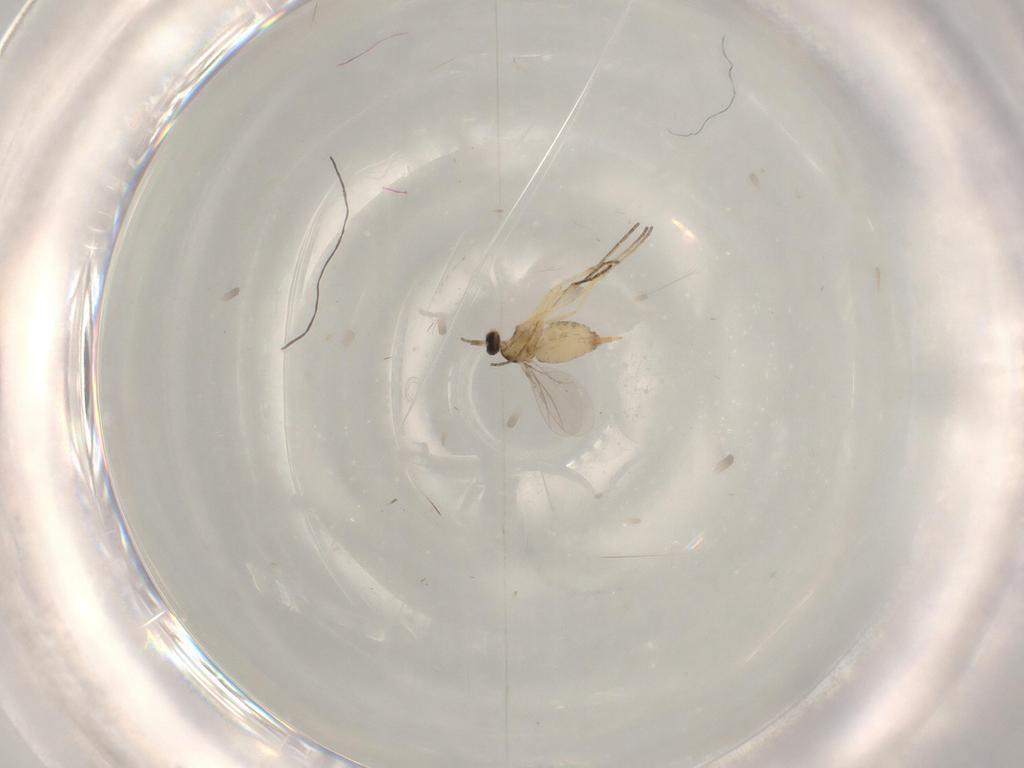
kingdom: Animalia
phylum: Arthropoda
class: Insecta
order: Diptera
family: Cecidomyiidae
